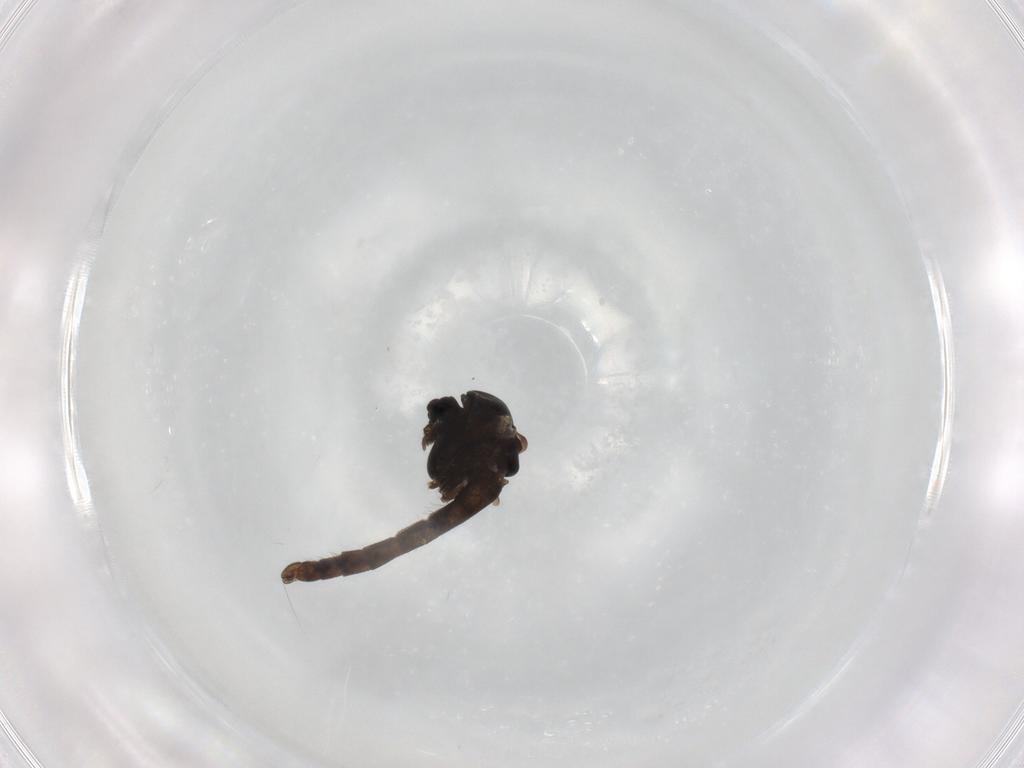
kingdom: Animalia
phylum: Arthropoda
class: Insecta
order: Diptera
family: Chironomidae
